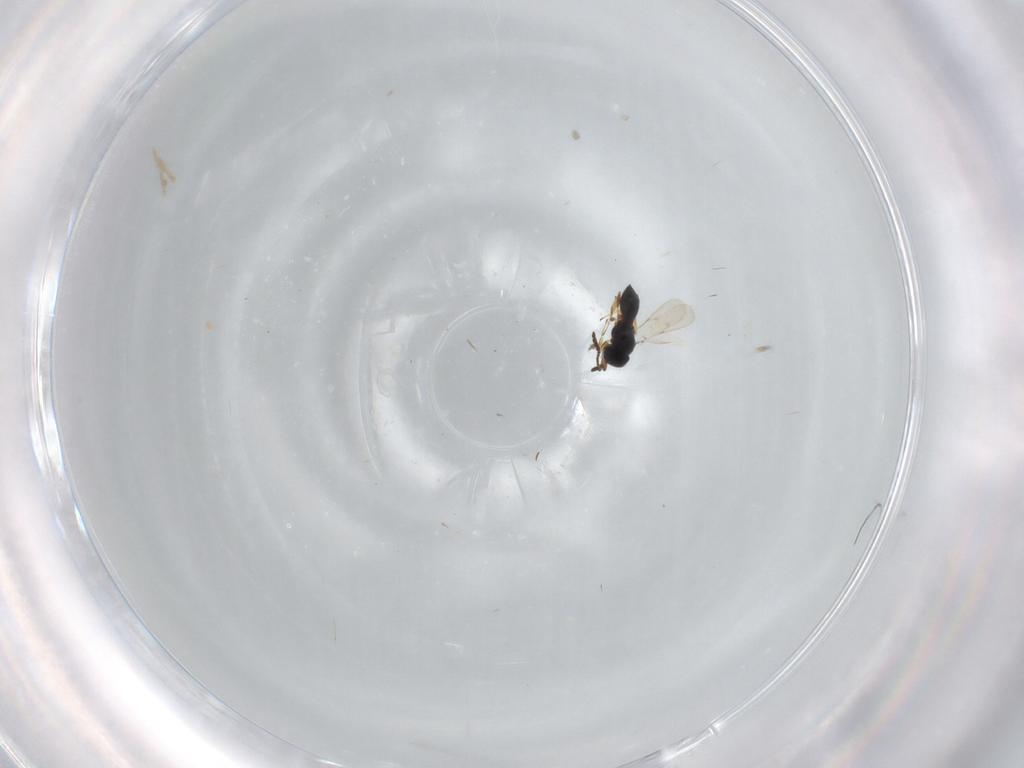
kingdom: Animalia
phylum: Arthropoda
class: Insecta
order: Hymenoptera
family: Scelionidae
